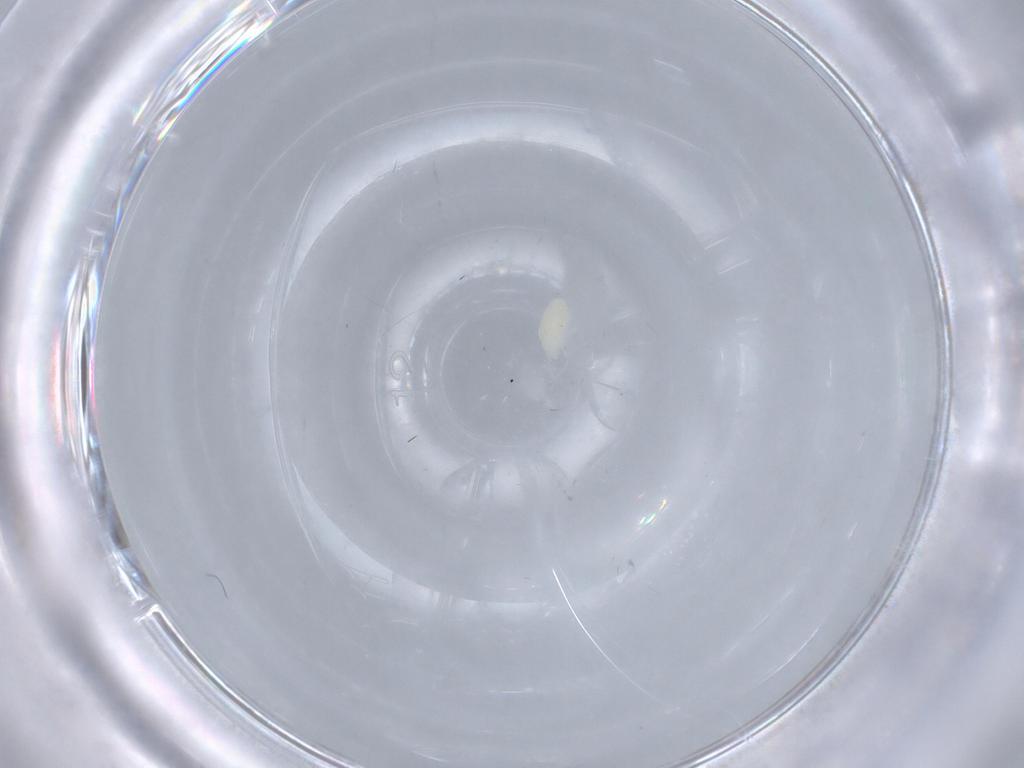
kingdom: Animalia
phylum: Arthropoda
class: Arachnida
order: Trombidiformes
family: Eupodidae
